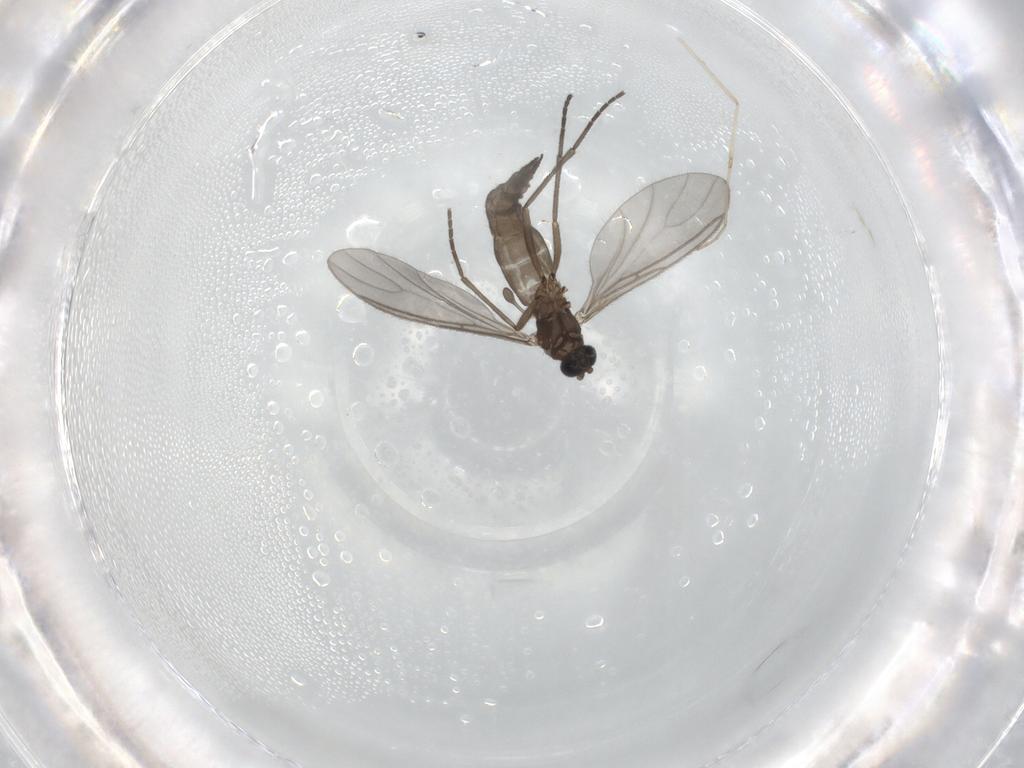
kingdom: Animalia
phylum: Arthropoda
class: Insecta
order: Diptera
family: Cecidomyiidae
